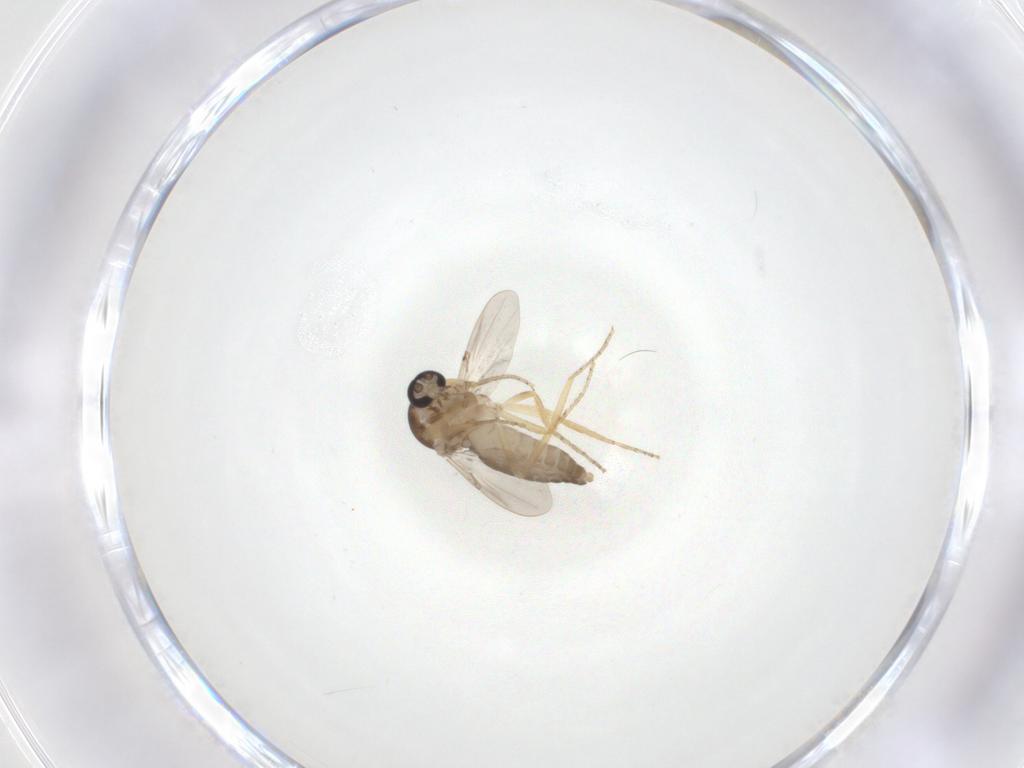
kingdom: Animalia
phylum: Arthropoda
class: Insecta
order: Diptera
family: Ceratopogonidae
